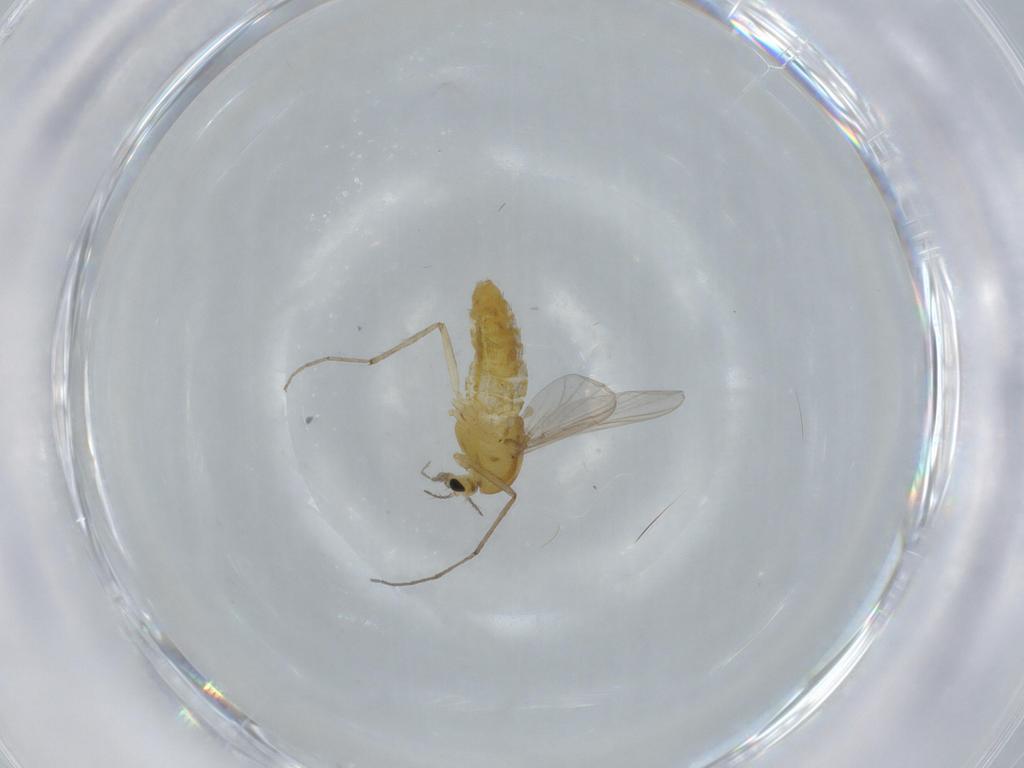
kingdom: Animalia
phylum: Arthropoda
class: Insecta
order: Diptera
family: Chironomidae
